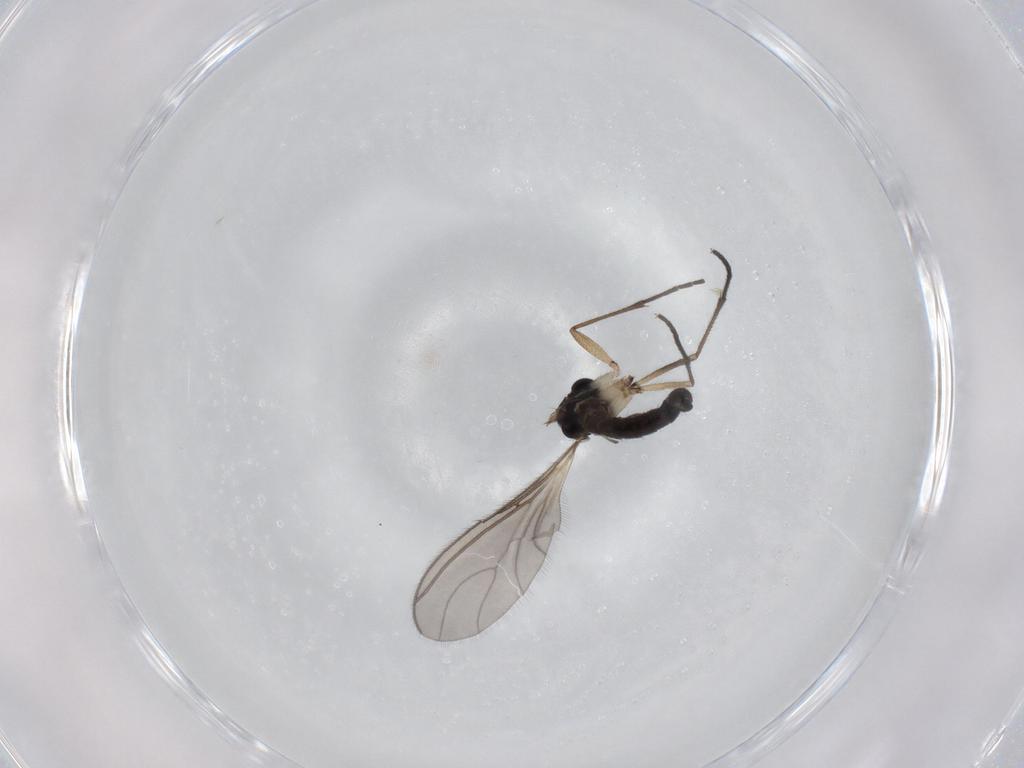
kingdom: Animalia
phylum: Arthropoda
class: Insecta
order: Diptera
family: Sciaridae
